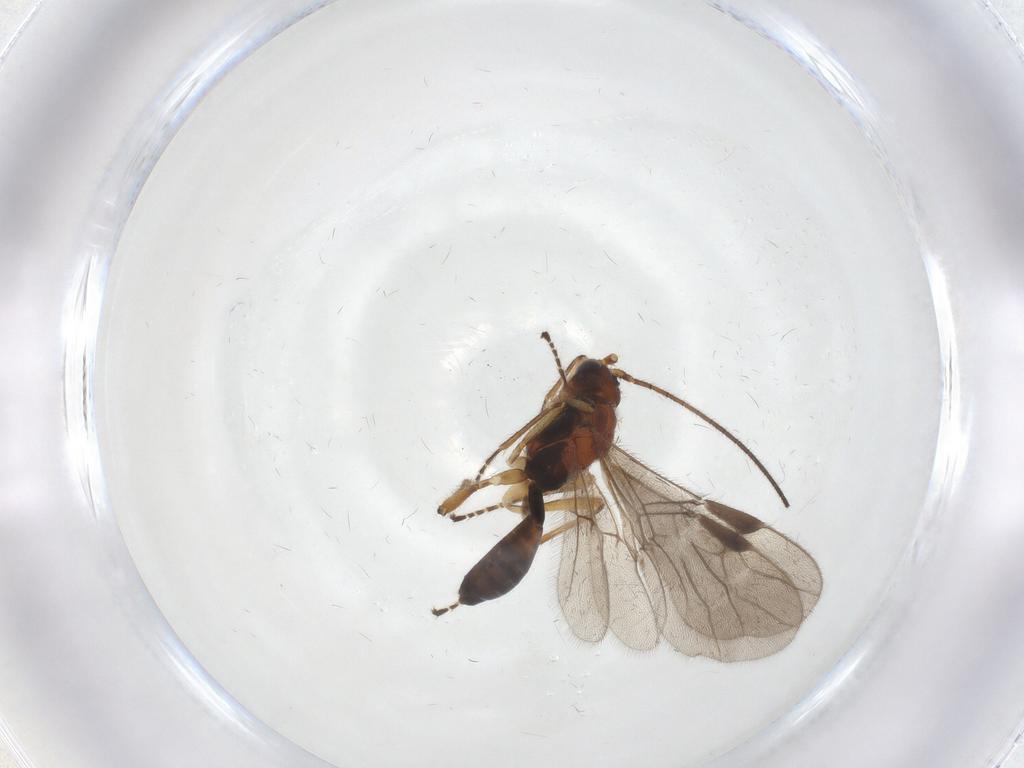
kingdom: Animalia
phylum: Arthropoda
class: Insecta
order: Hymenoptera
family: Braconidae
